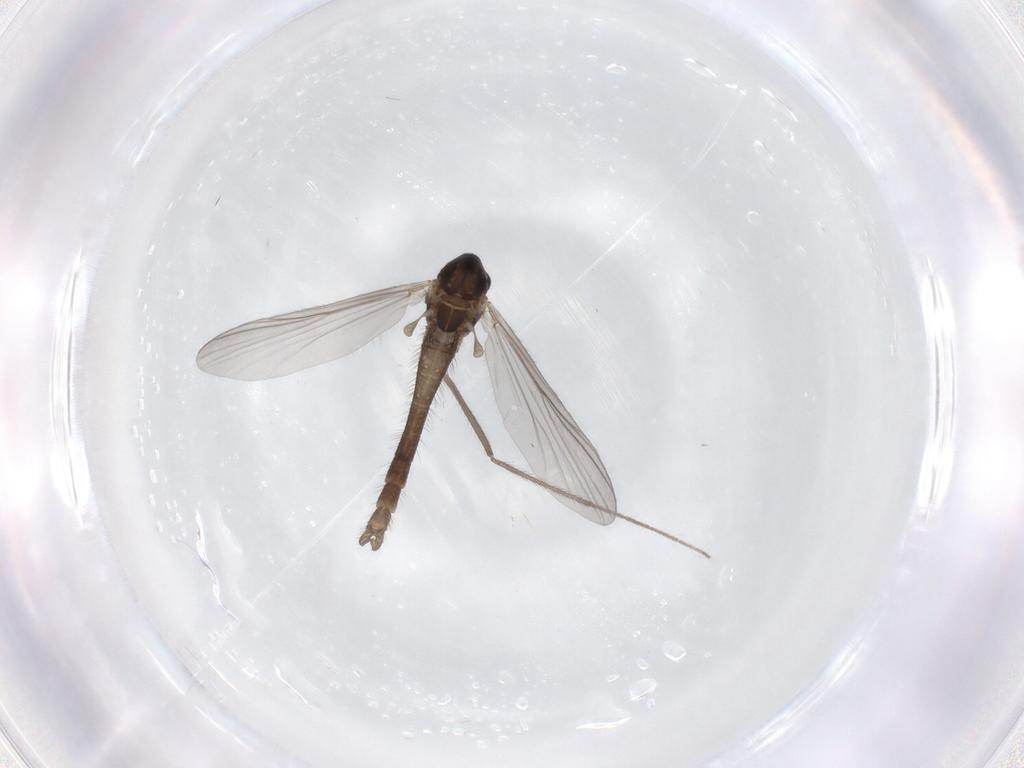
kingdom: Animalia
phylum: Arthropoda
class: Insecta
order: Diptera
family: Chironomidae
